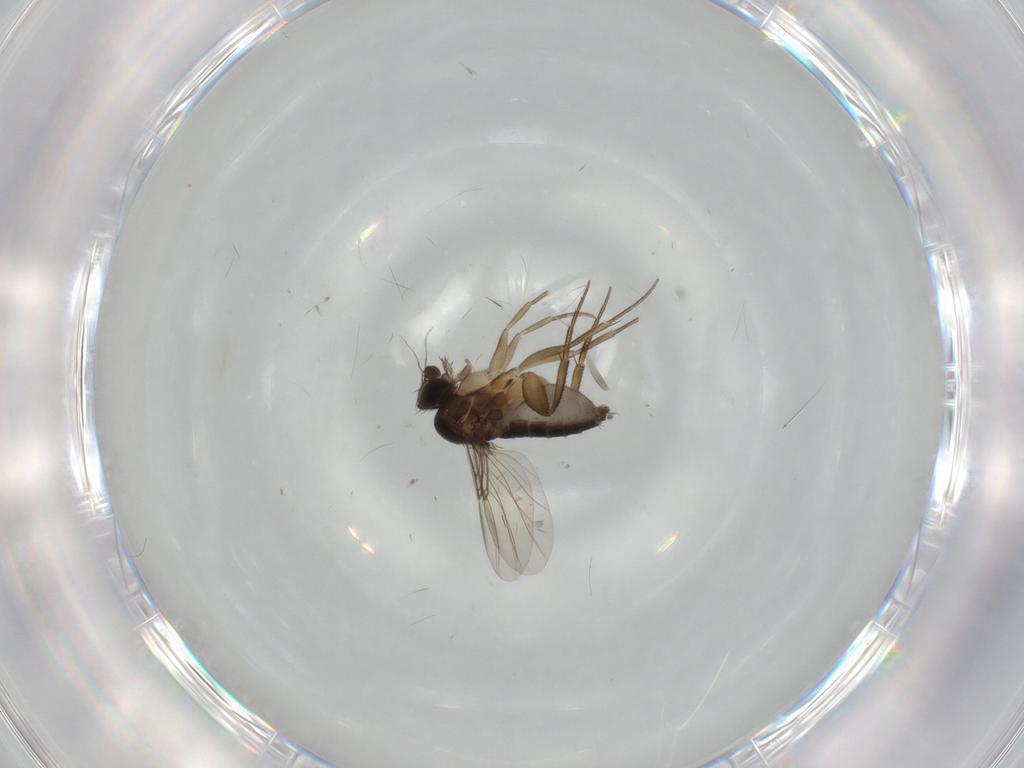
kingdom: Animalia
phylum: Arthropoda
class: Insecta
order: Diptera
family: Phoridae
